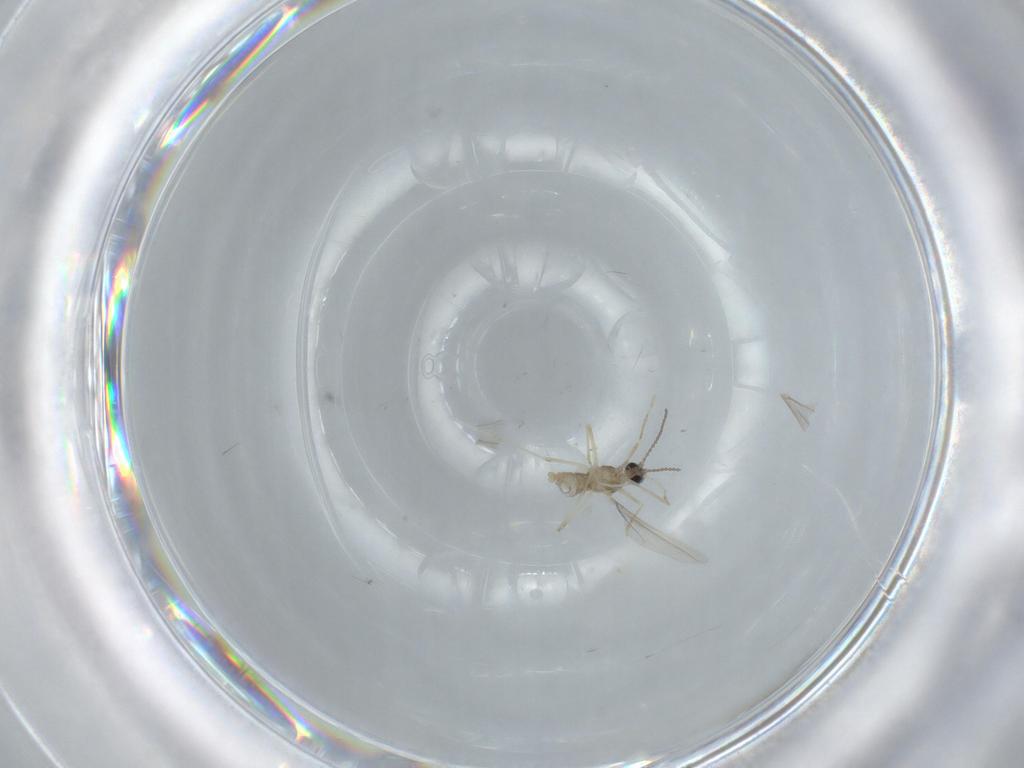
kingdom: Animalia
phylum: Arthropoda
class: Insecta
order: Diptera
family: Cecidomyiidae
